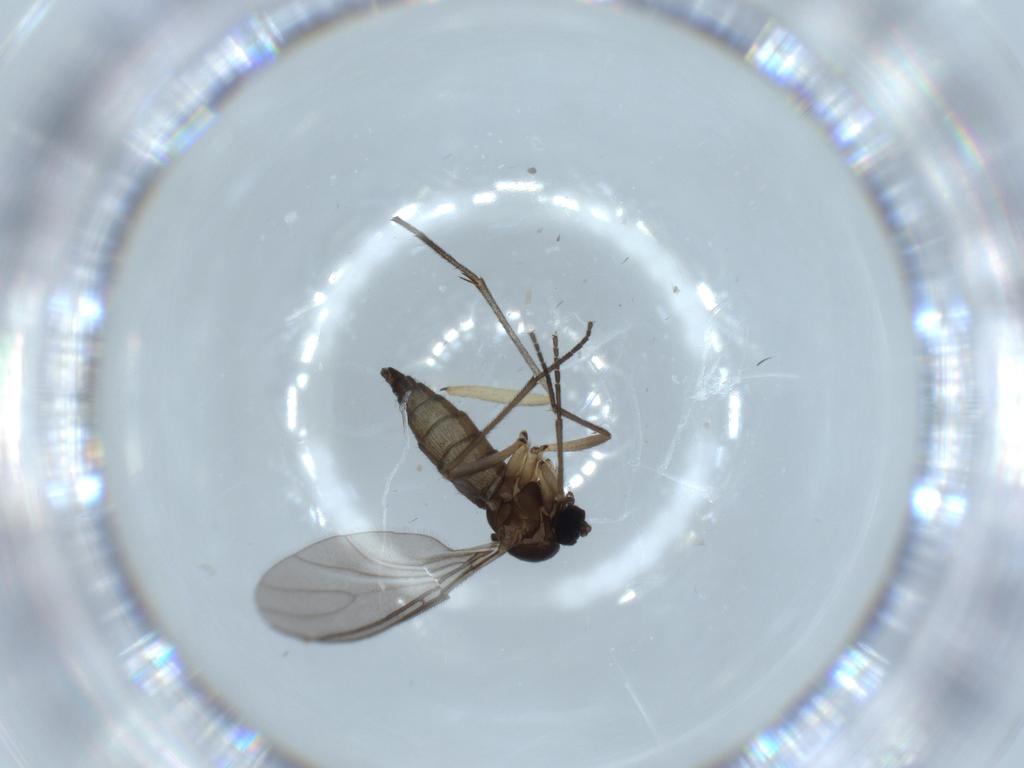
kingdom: Animalia
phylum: Arthropoda
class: Insecta
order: Diptera
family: Sciaridae
